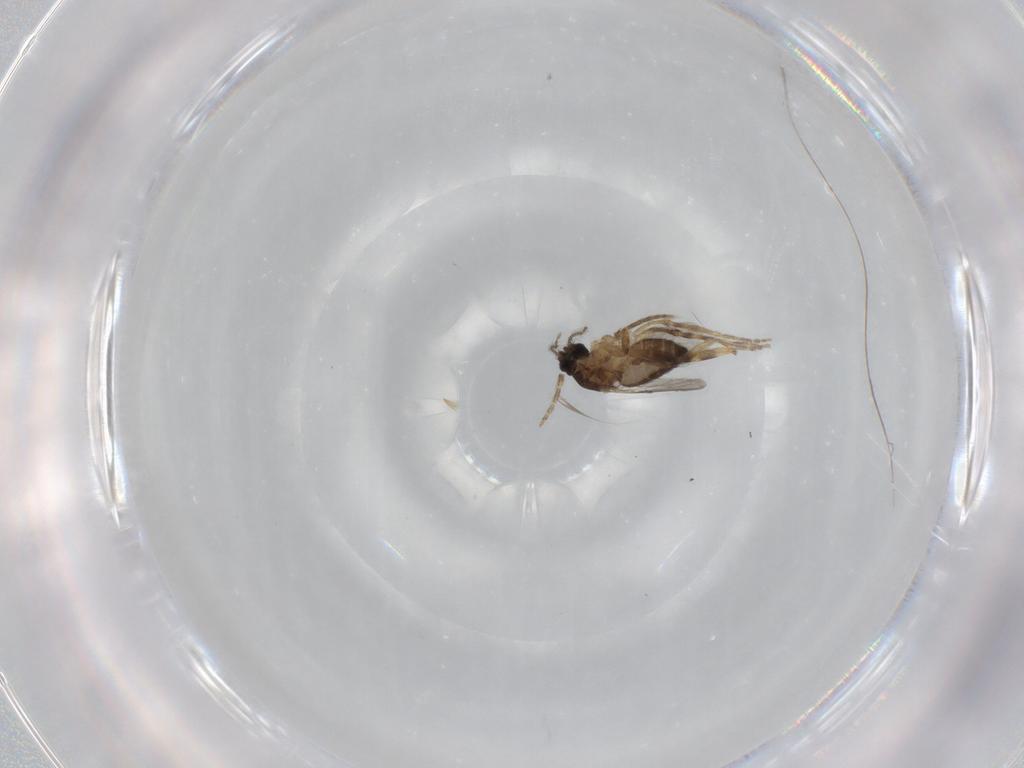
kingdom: Animalia
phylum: Arthropoda
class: Insecta
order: Diptera
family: Ceratopogonidae
